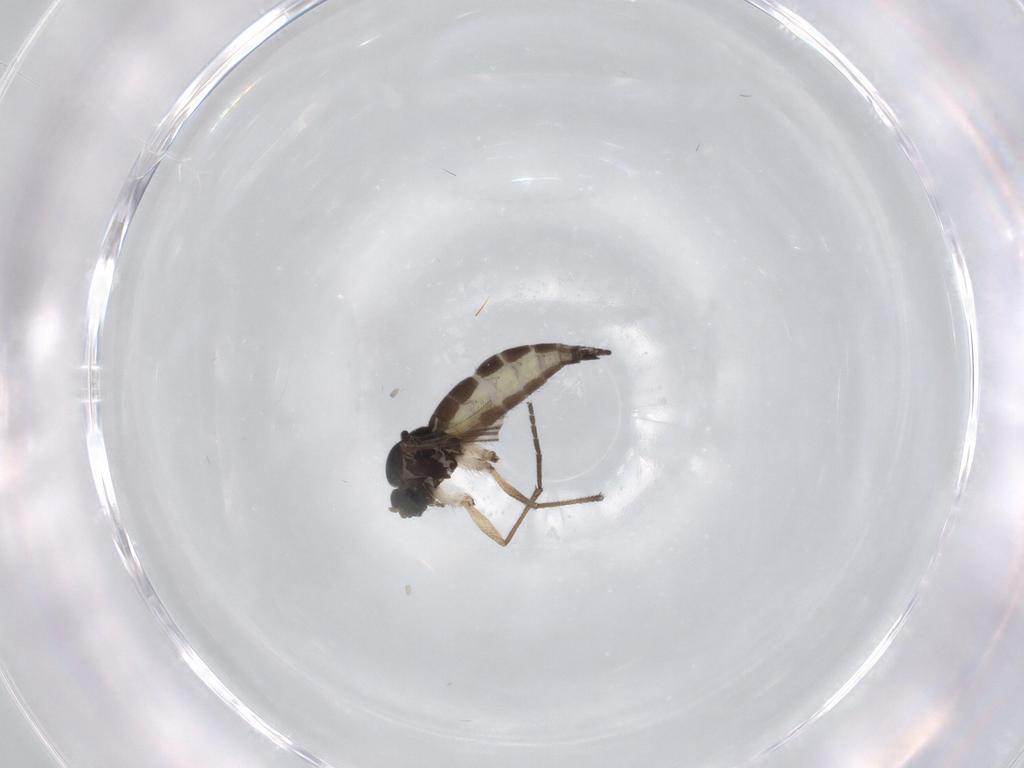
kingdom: Animalia
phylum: Arthropoda
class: Insecta
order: Diptera
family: Sciaridae
